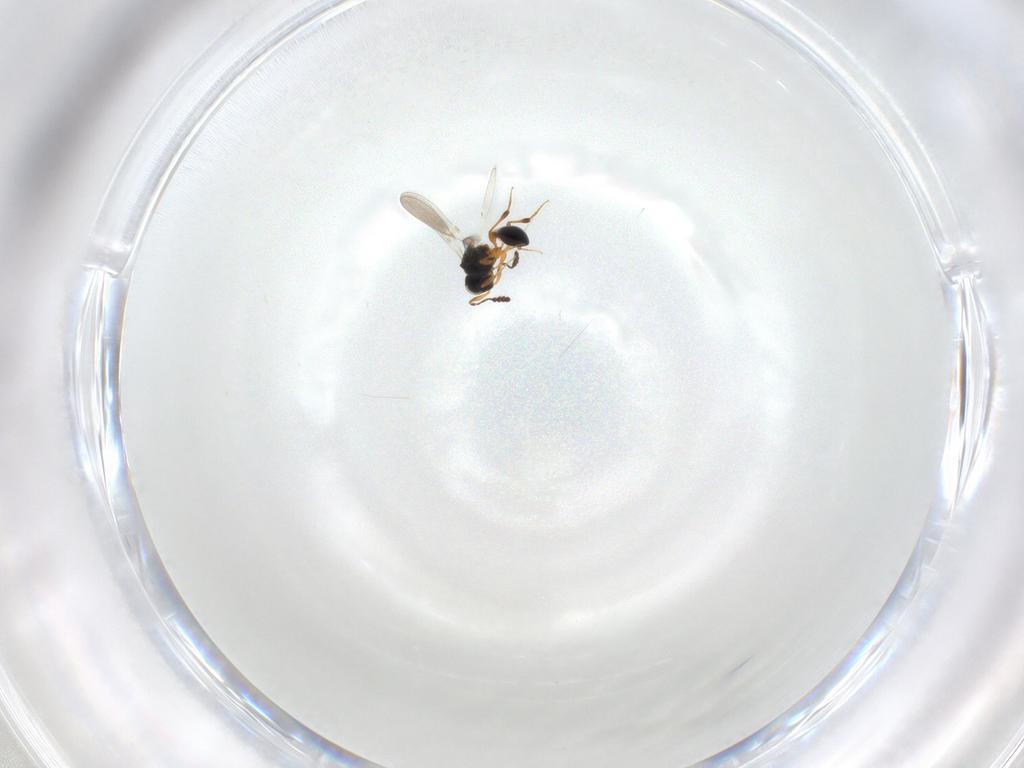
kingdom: Animalia
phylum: Arthropoda
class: Insecta
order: Hymenoptera
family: Platygastridae
